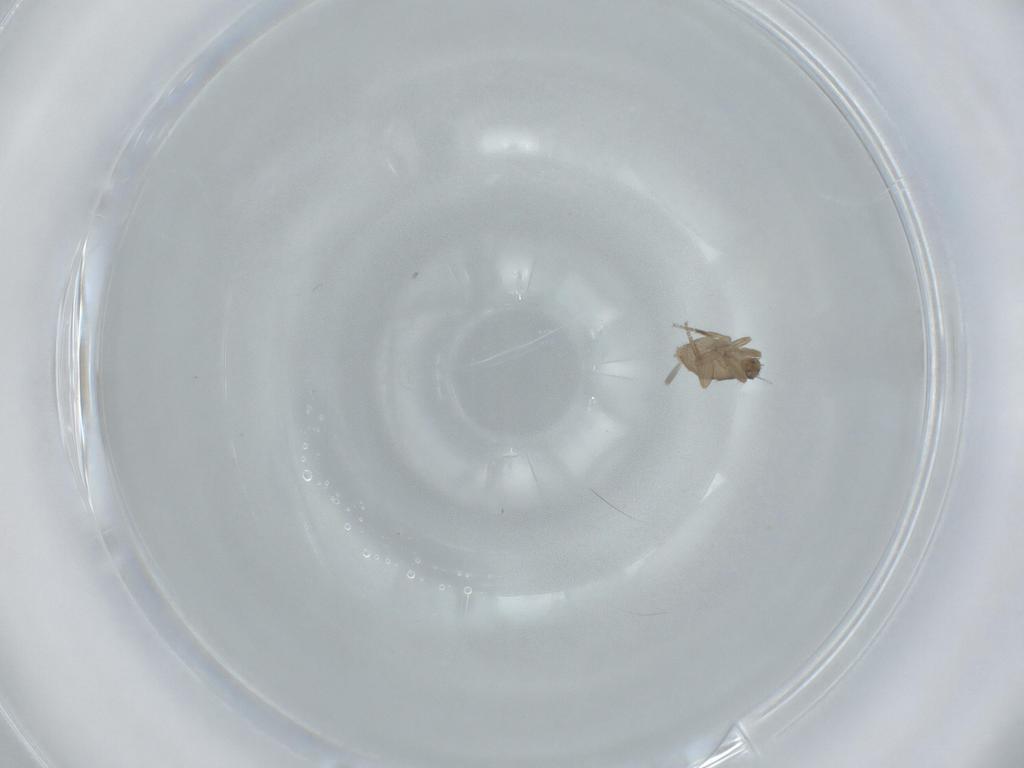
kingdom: Animalia
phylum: Arthropoda
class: Insecta
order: Diptera
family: Phoridae
